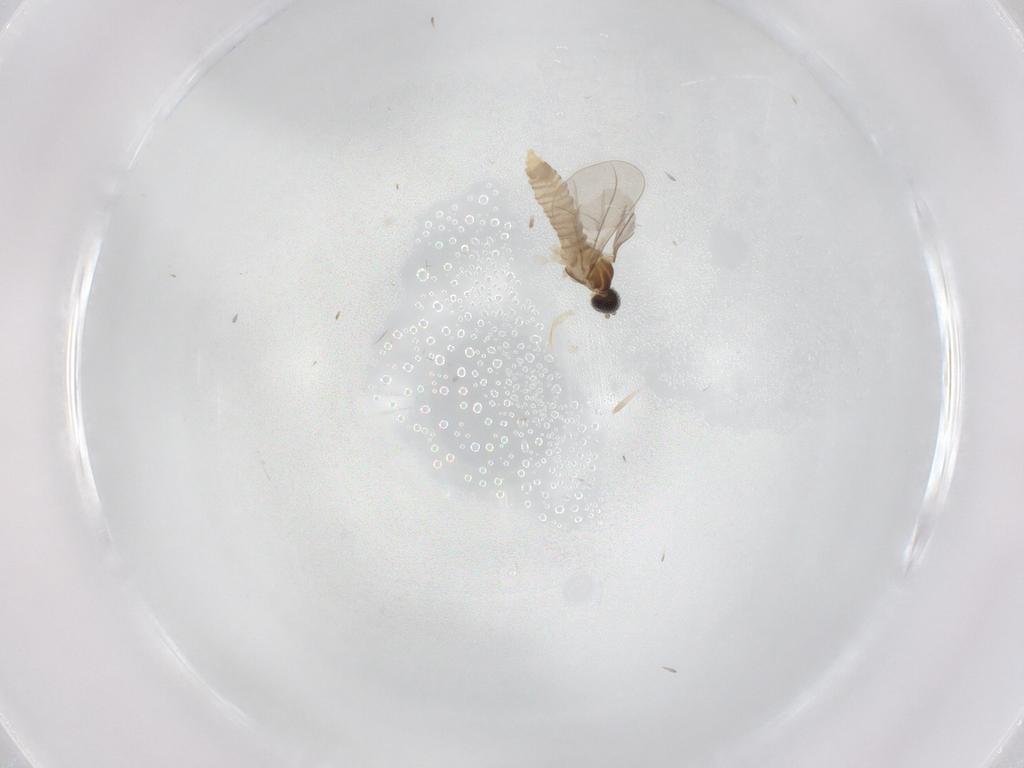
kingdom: Animalia
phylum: Arthropoda
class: Insecta
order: Diptera
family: Cecidomyiidae
